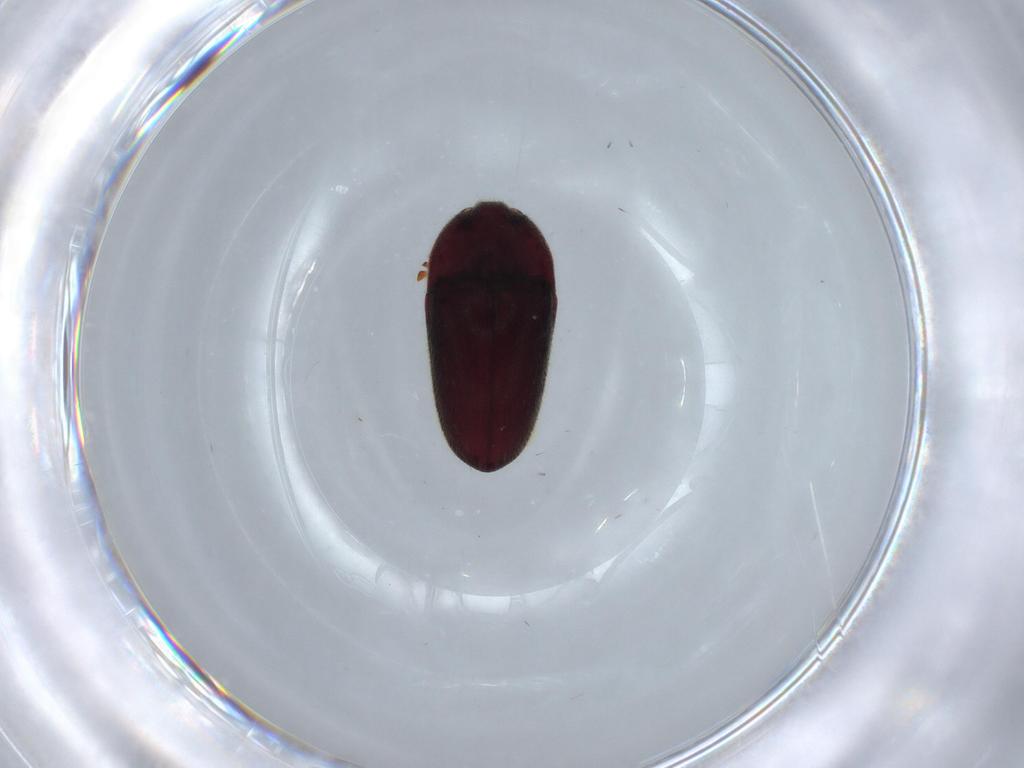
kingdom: Animalia
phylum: Arthropoda
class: Insecta
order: Coleoptera
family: Throscidae
